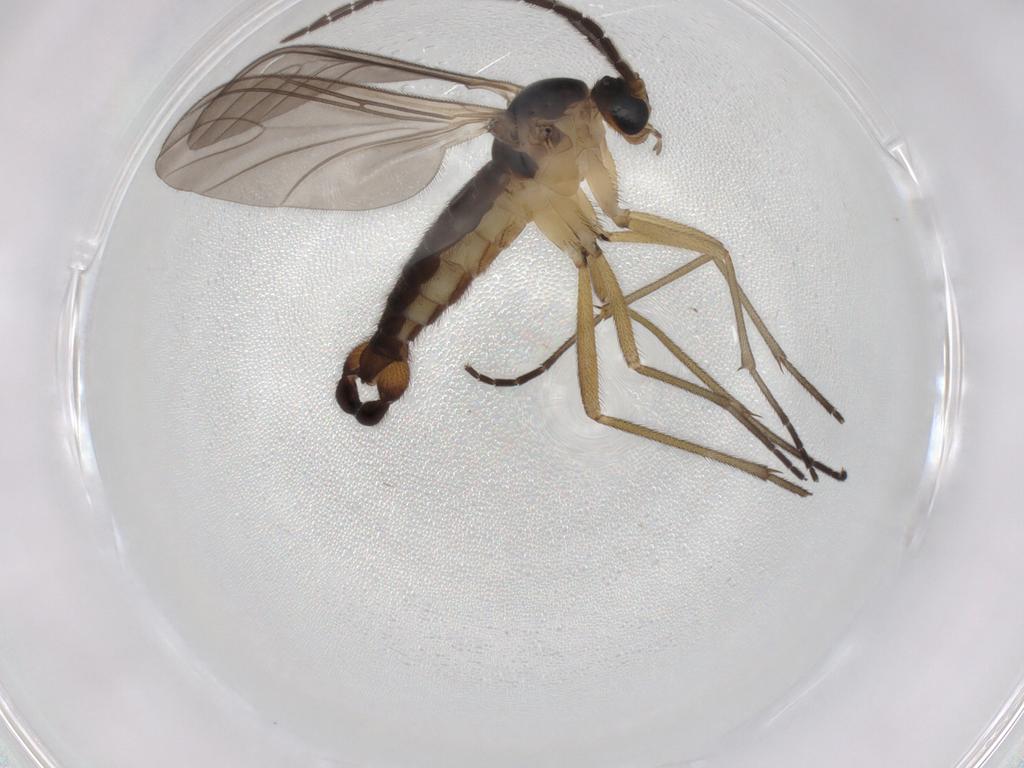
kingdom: Animalia
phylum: Arthropoda
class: Insecta
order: Diptera
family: Sciaridae
